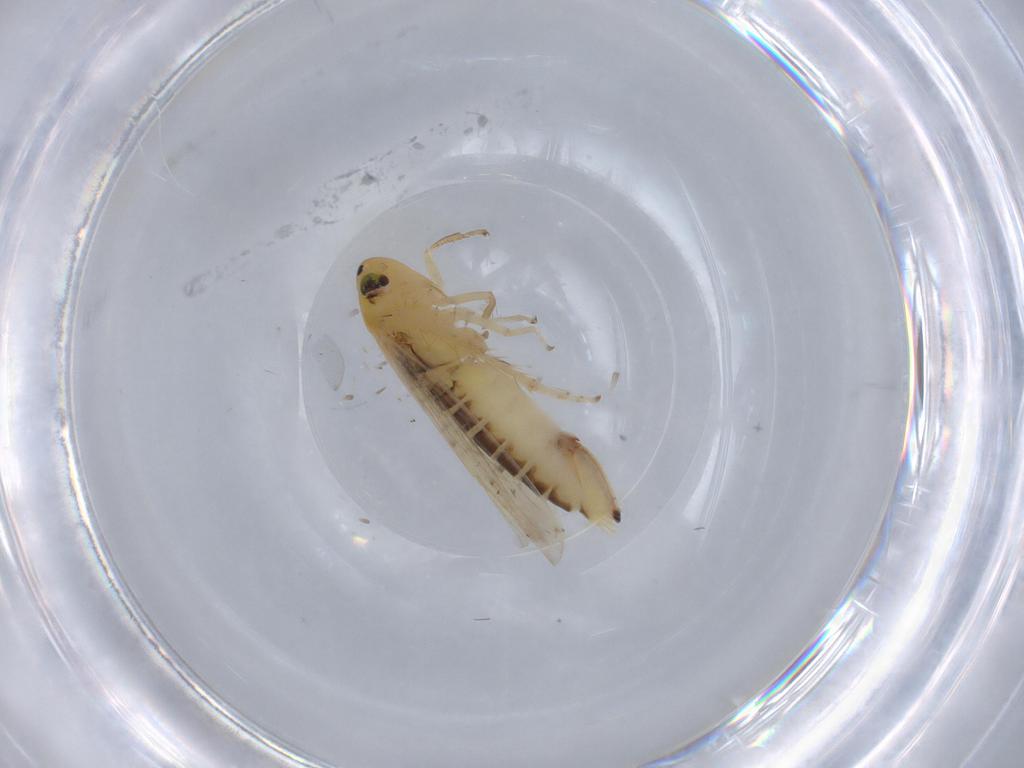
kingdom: Animalia
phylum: Arthropoda
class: Insecta
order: Hemiptera
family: Cicadellidae
